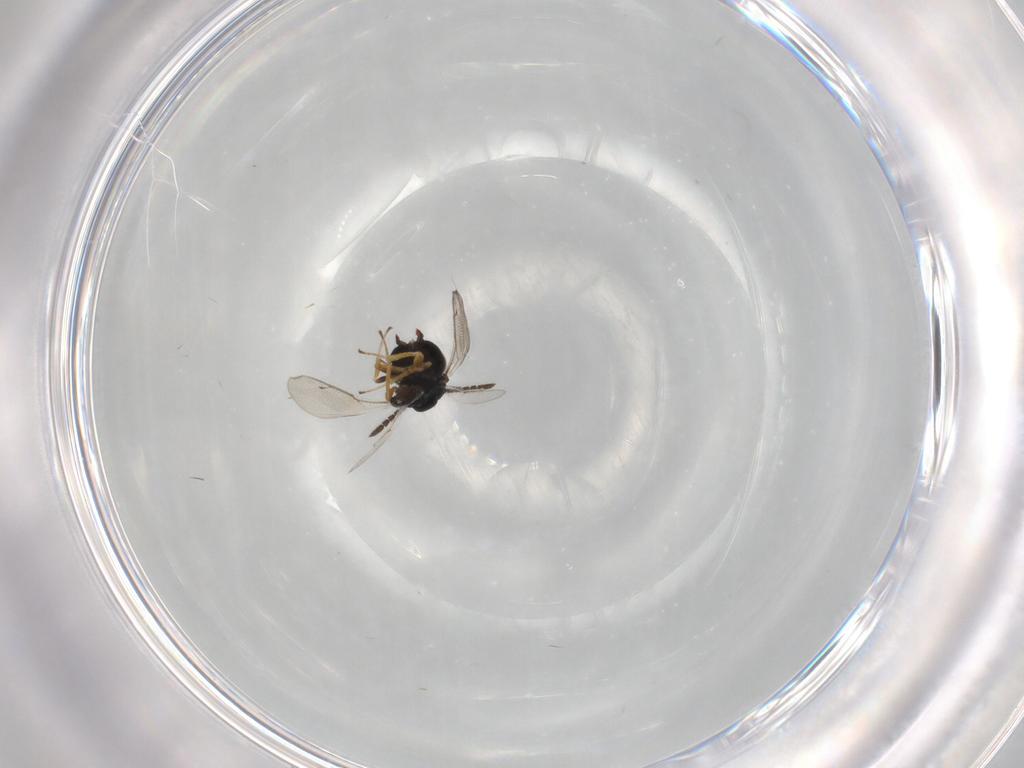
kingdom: Animalia
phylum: Arthropoda
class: Insecta
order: Hymenoptera
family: Pteromalidae
